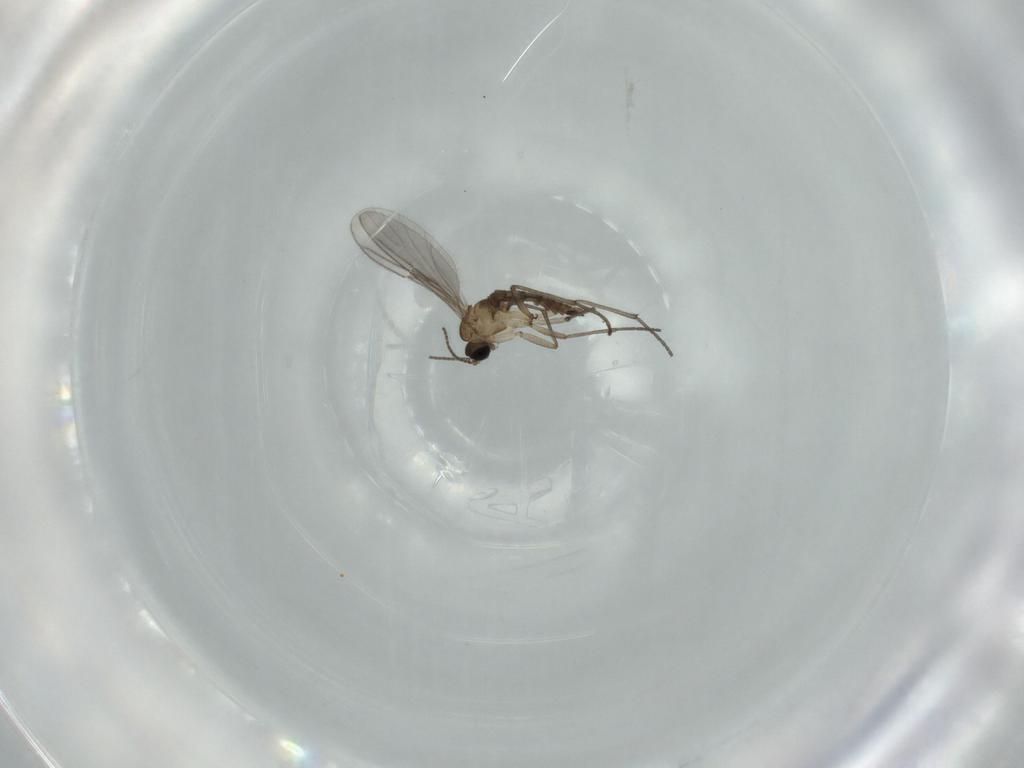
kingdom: Animalia
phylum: Arthropoda
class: Insecta
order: Diptera
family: Sciaridae
